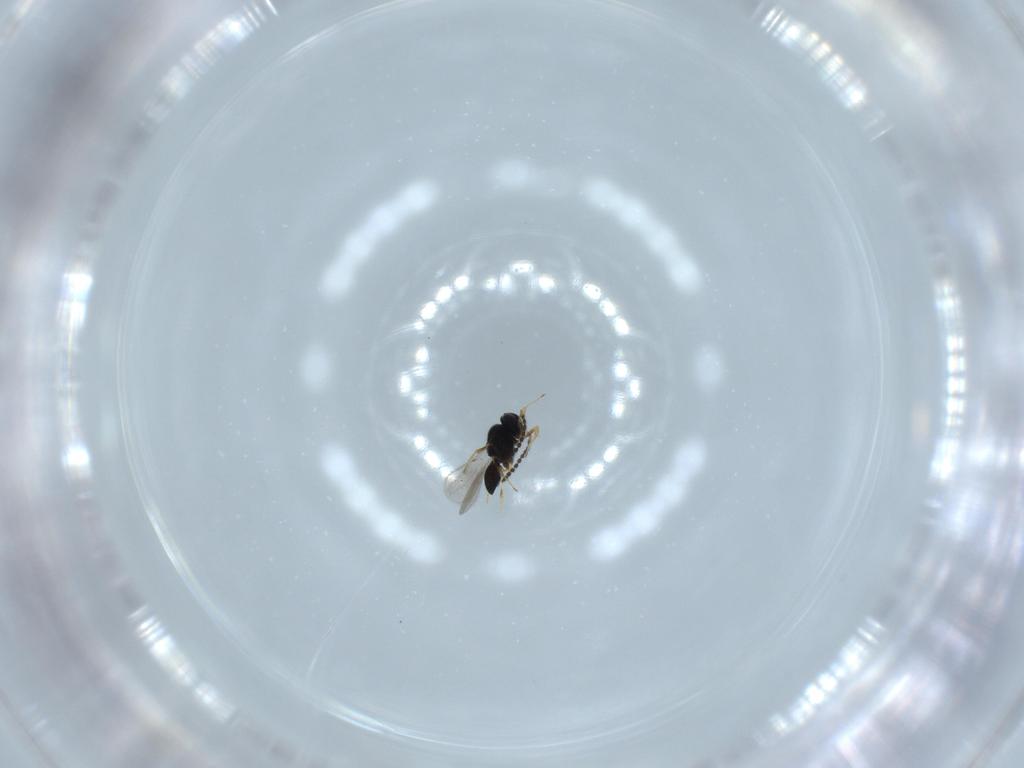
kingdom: Animalia
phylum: Arthropoda
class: Insecta
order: Hymenoptera
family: Scelionidae
